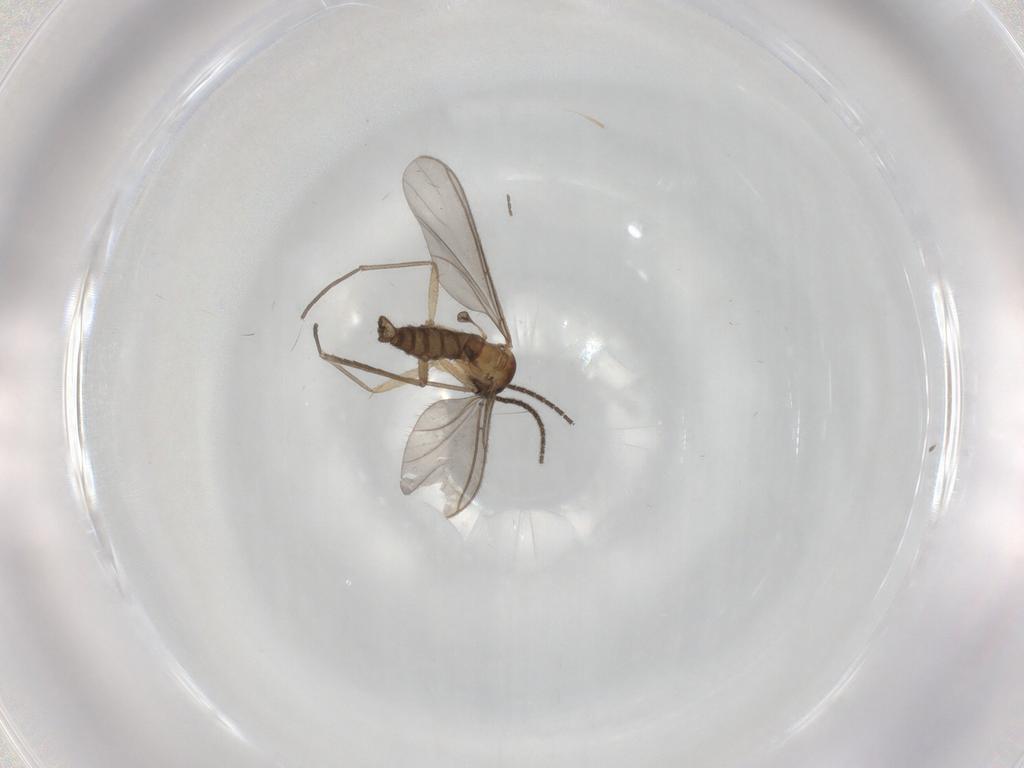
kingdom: Animalia
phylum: Arthropoda
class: Insecta
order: Diptera
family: Sciaridae
